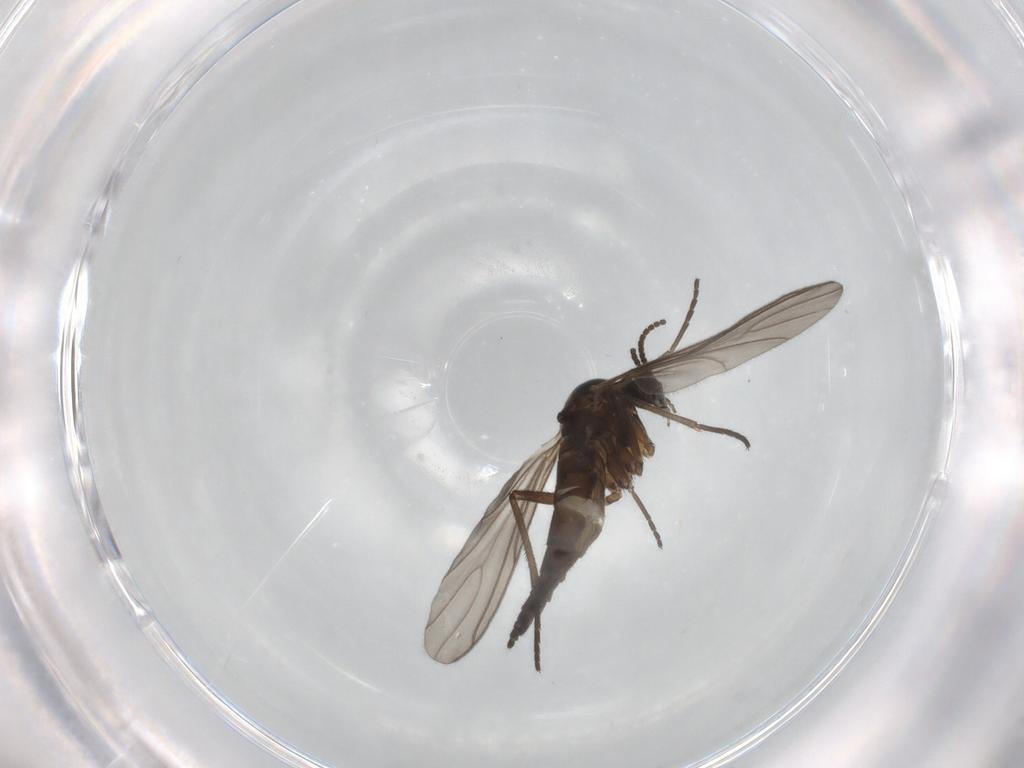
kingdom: Animalia
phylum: Arthropoda
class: Insecta
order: Diptera
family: Sciaridae
